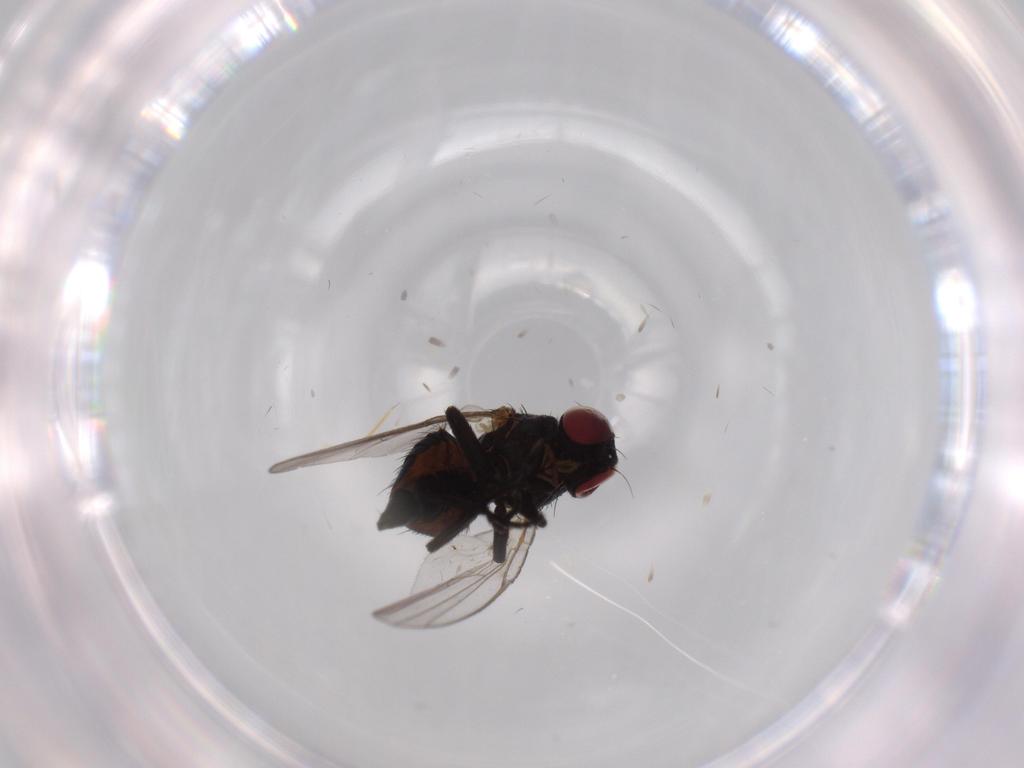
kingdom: Animalia
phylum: Arthropoda
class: Insecta
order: Diptera
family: Agromyzidae
